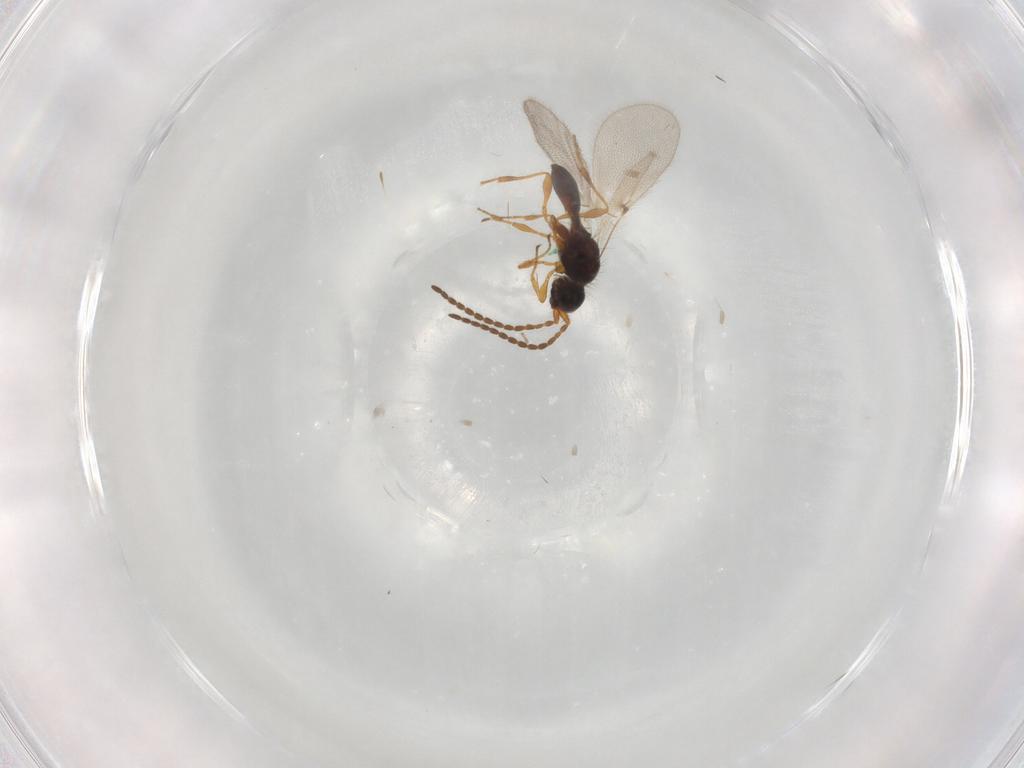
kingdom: Animalia
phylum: Arthropoda
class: Insecta
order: Hymenoptera
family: Diapriidae
